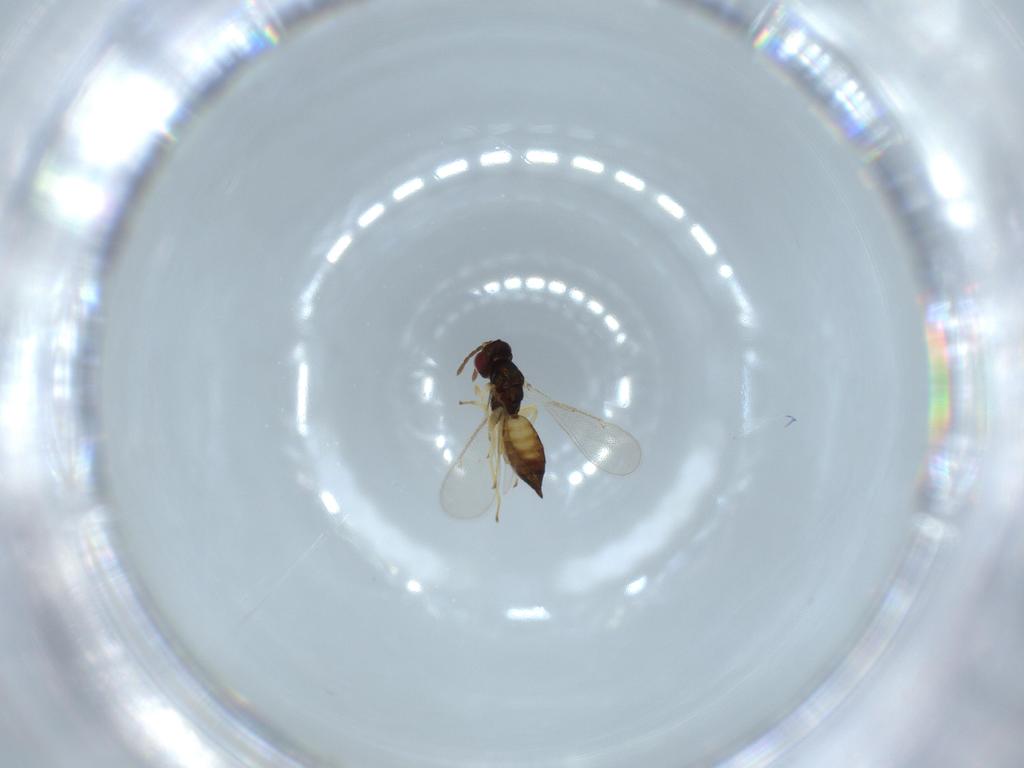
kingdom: Animalia
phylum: Arthropoda
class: Insecta
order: Hymenoptera
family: Eulophidae
